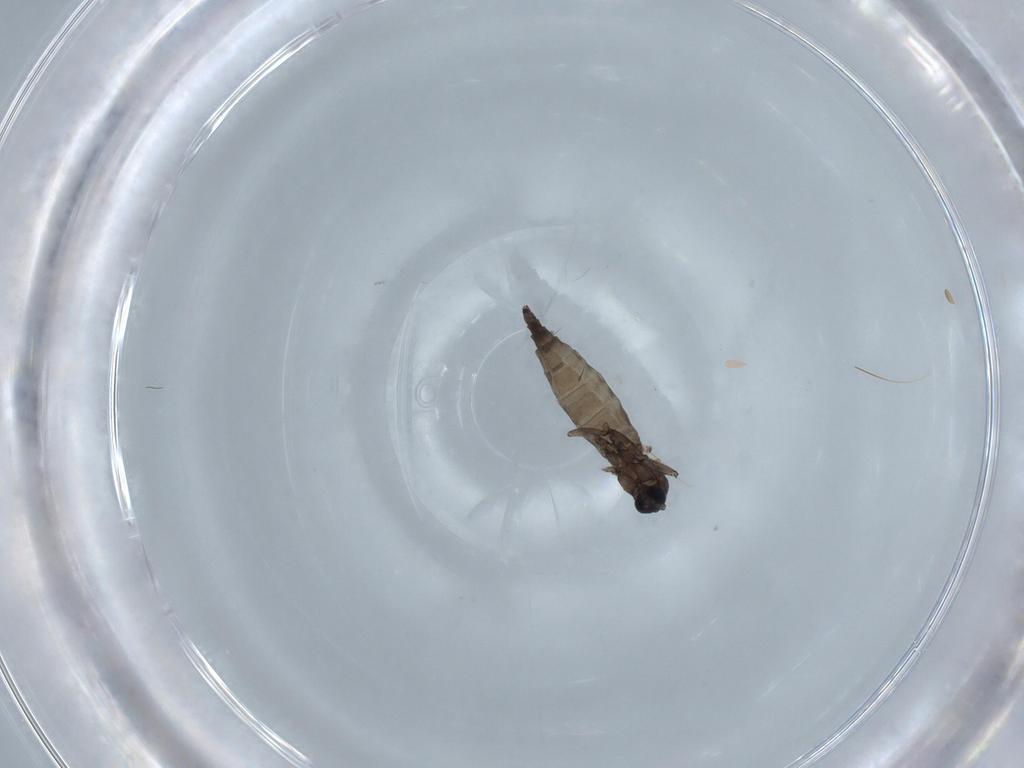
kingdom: Animalia
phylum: Arthropoda
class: Insecta
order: Diptera
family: Sciaridae
